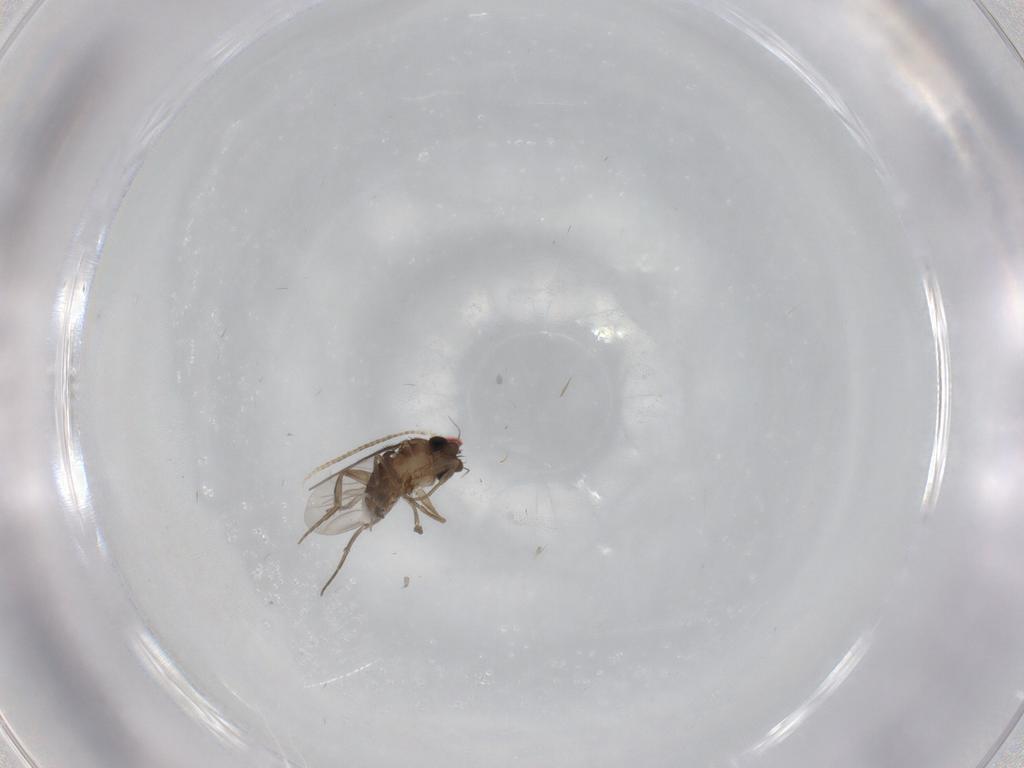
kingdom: Animalia
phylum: Arthropoda
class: Insecta
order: Diptera
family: Phoridae
